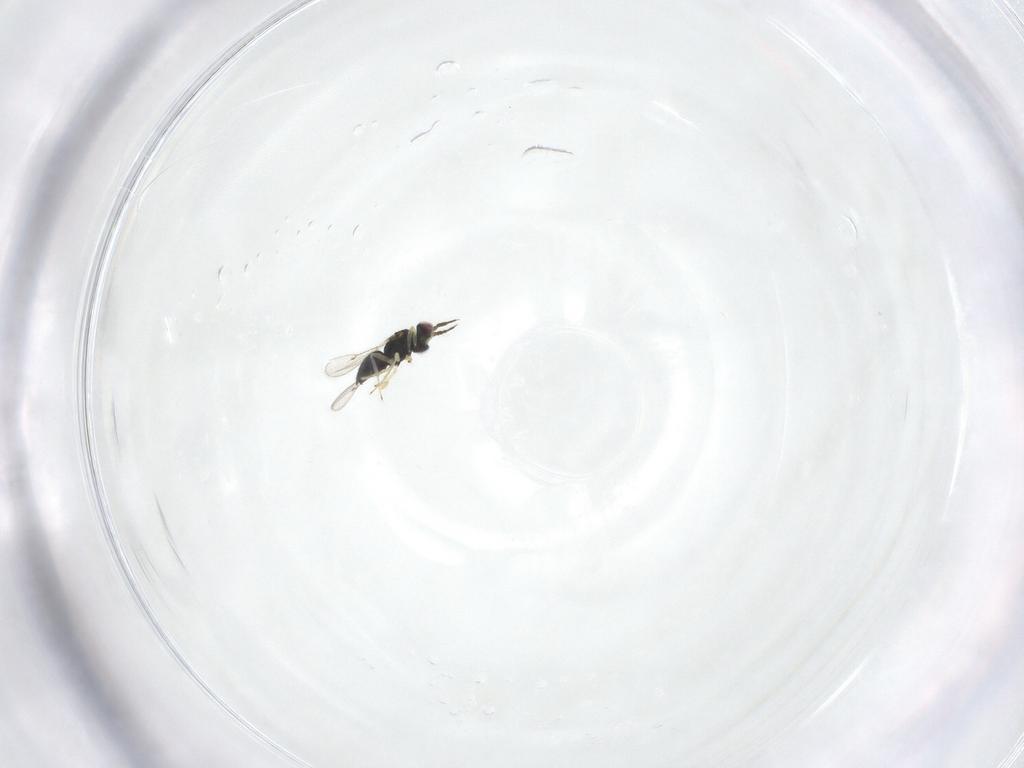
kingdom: Animalia
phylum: Arthropoda
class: Insecta
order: Hymenoptera
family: Eulophidae
